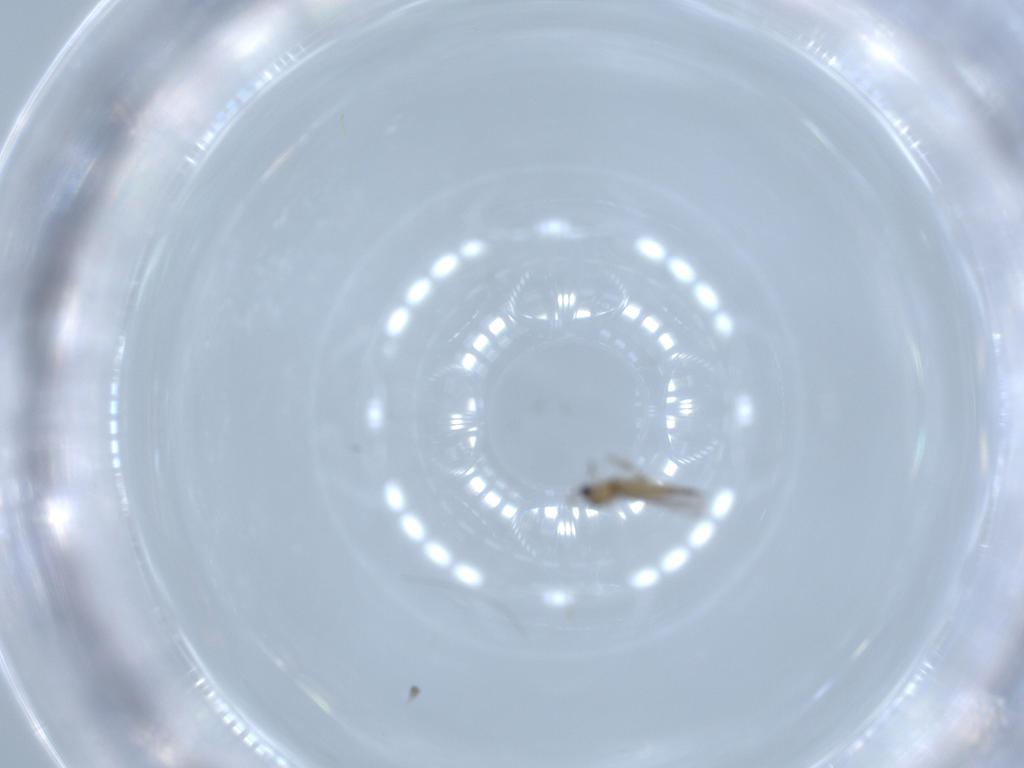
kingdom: Animalia
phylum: Arthropoda
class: Insecta
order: Diptera
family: Cecidomyiidae
